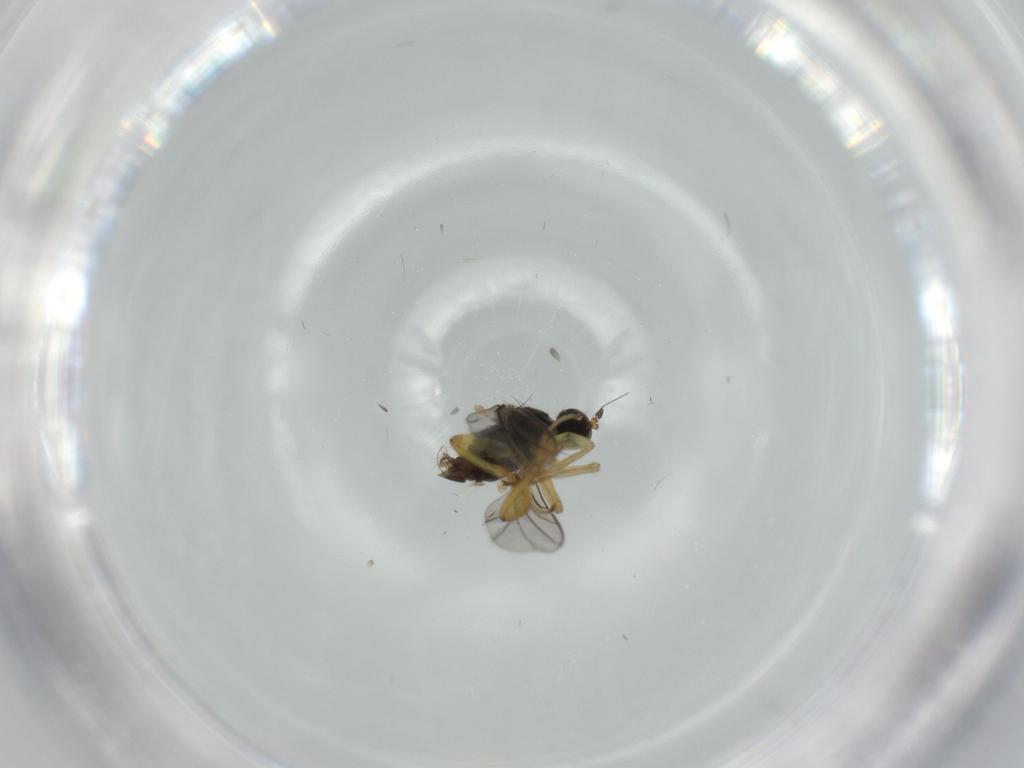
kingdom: Animalia
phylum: Arthropoda
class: Insecta
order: Diptera
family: Hybotidae
